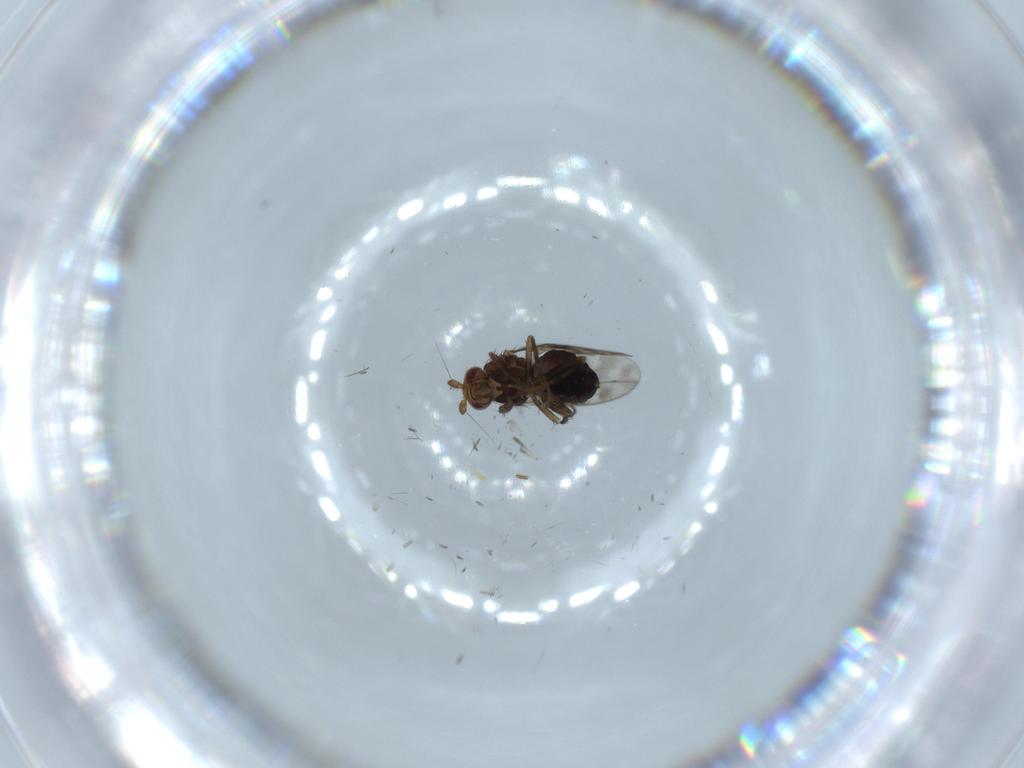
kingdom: Animalia
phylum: Arthropoda
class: Insecta
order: Diptera
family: Sphaeroceridae
